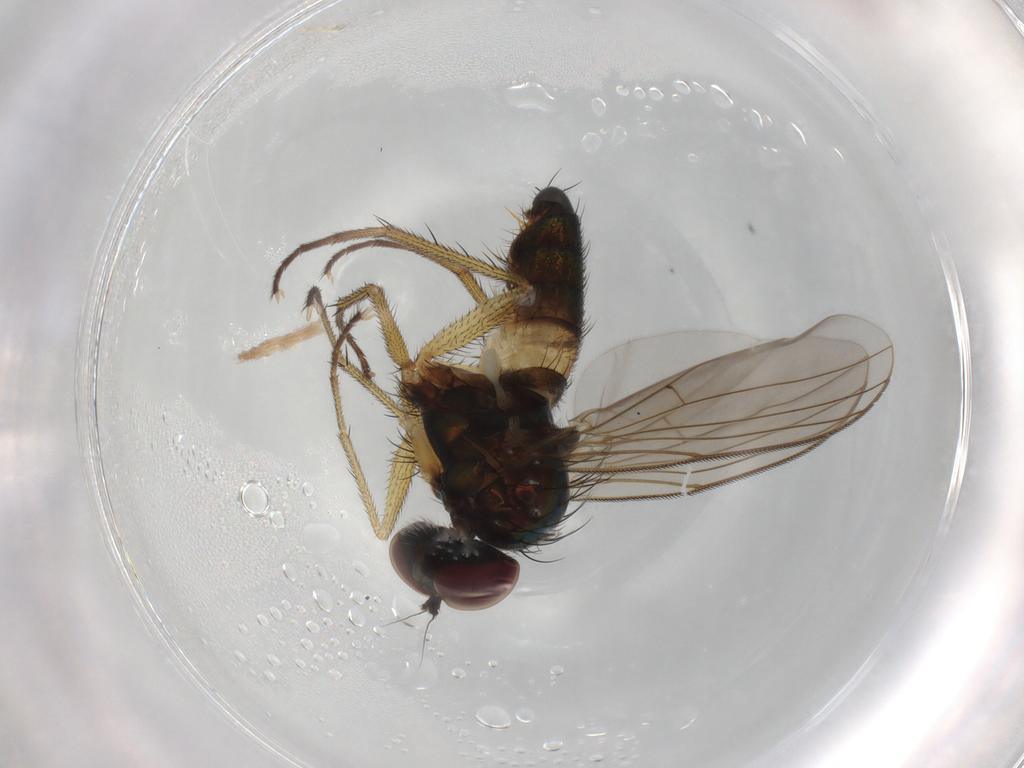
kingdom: Animalia
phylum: Arthropoda
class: Insecta
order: Diptera
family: Dolichopodidae
